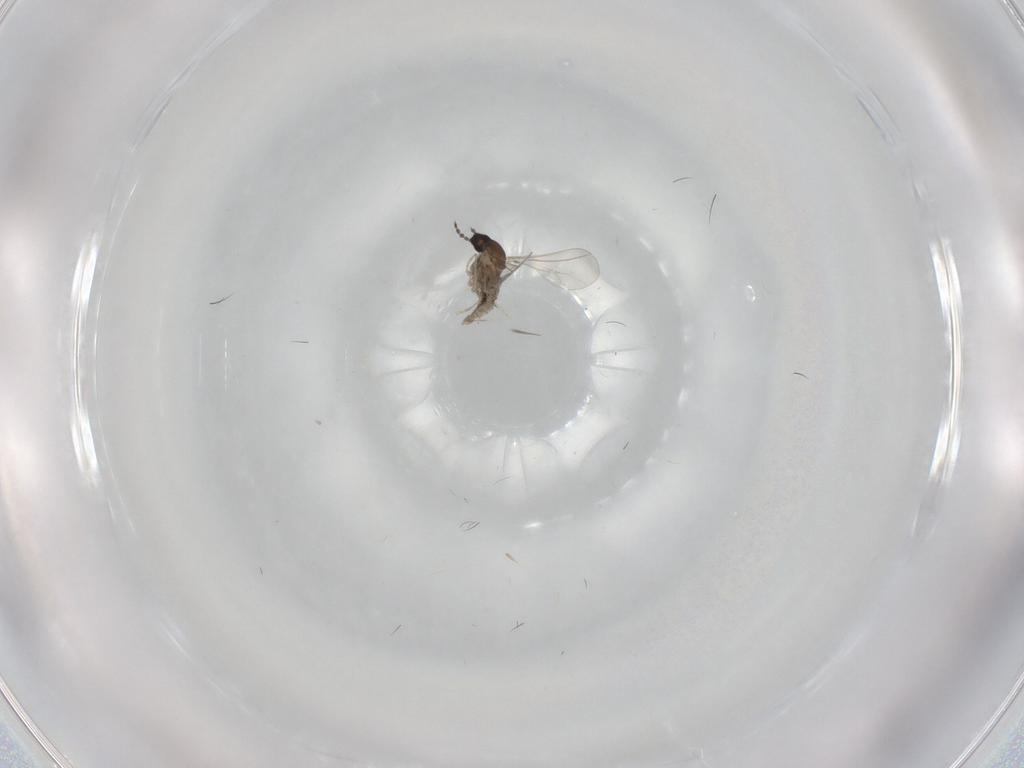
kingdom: Animalia
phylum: Arthropoda
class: Insecta
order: Diptera
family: Cecidomyiidae
